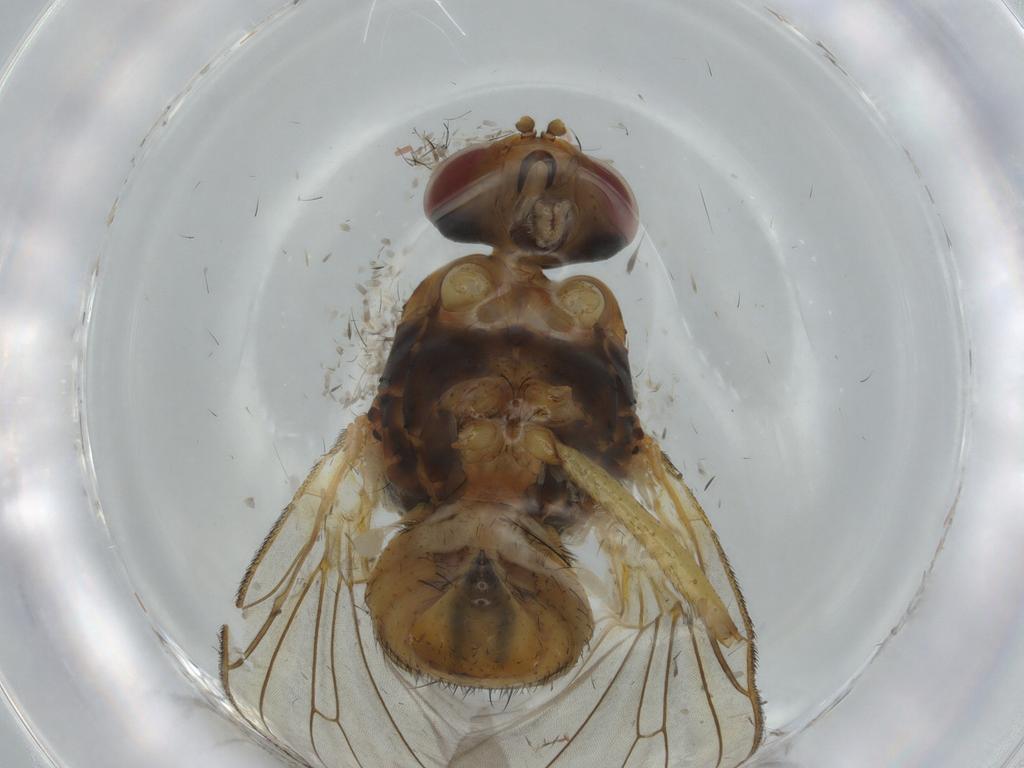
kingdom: Animalia
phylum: Arthropoda
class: Insecta
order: Diptera
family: Anthomyiidae
